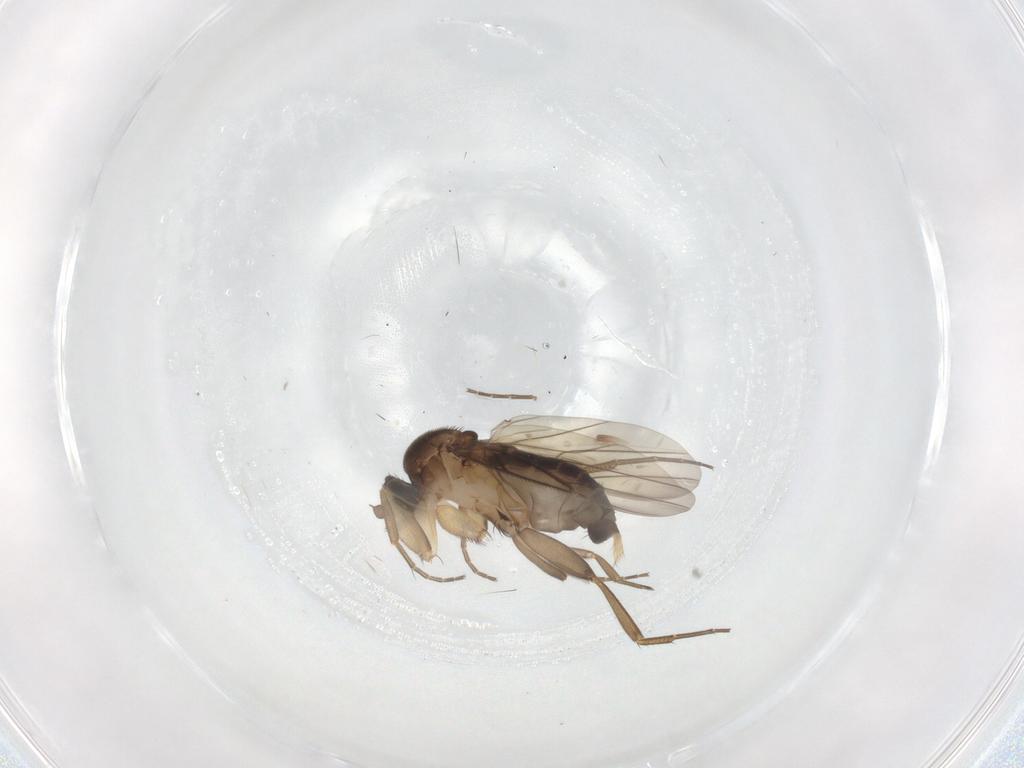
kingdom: Animalia
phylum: Arthropoda
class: Insecta
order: Diptera
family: Phoridae
